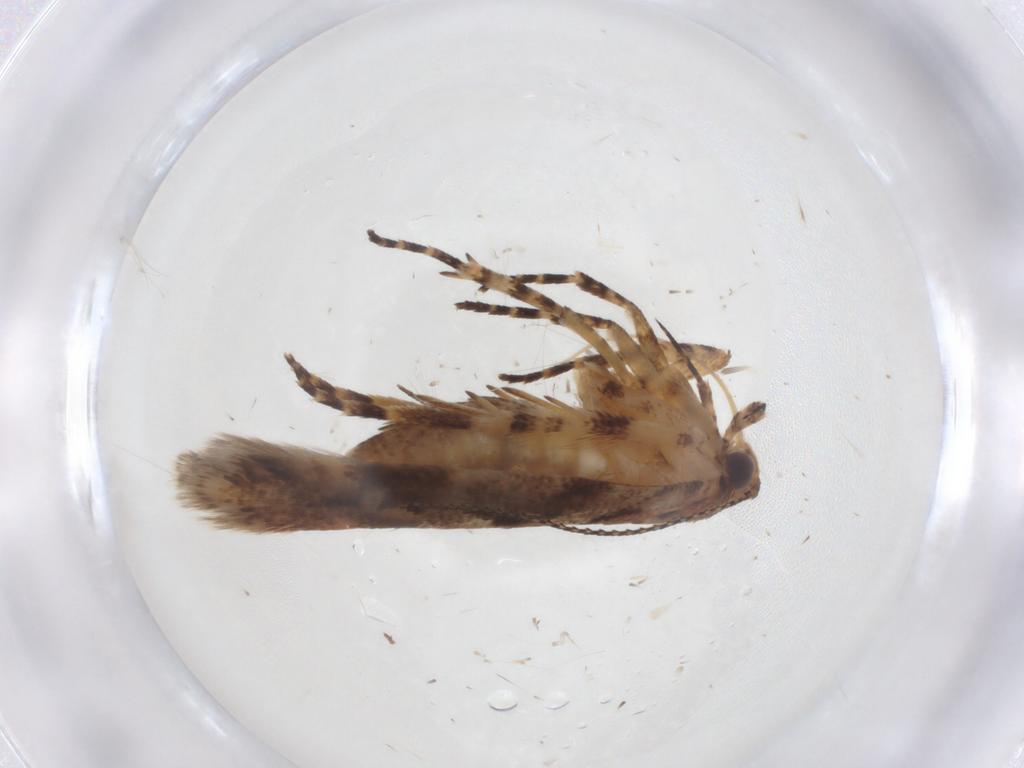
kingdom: Animalia
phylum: Arthropoda
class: Insecta
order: Lepidoptera
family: Gelechiidae
